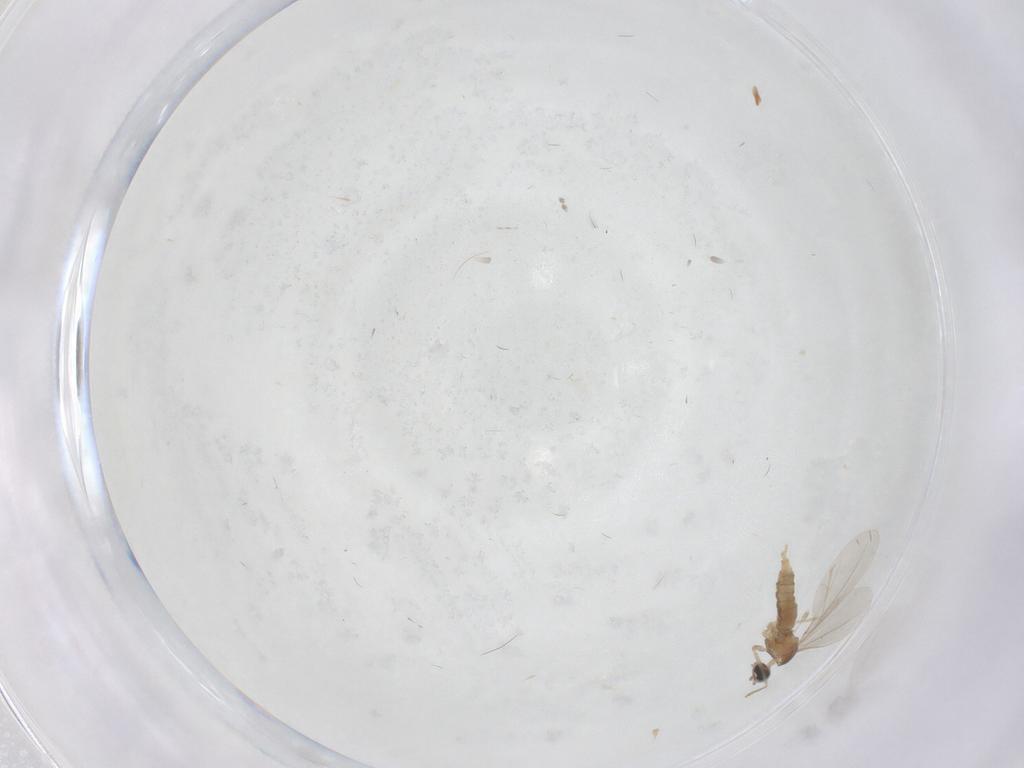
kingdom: Animalia
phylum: Arthropoda
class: Insecta
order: Diptera
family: Cecidomyiidae
